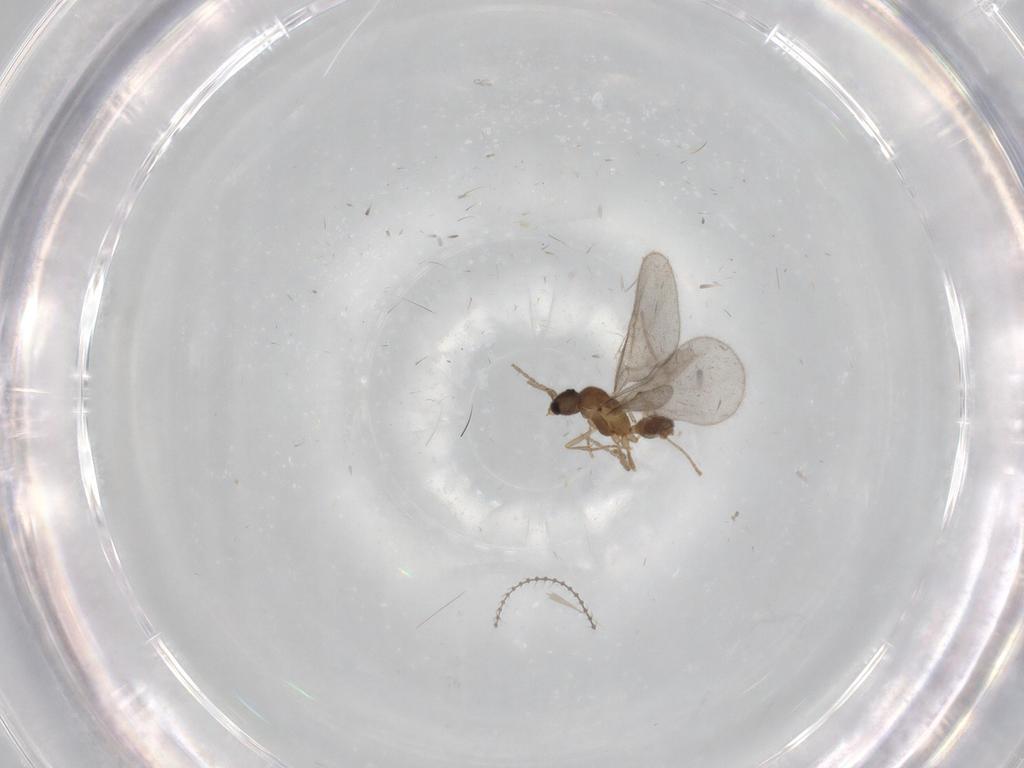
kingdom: Animalia
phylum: Arthropoda
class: Insecta
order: Hymenoptera
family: Formicidae
